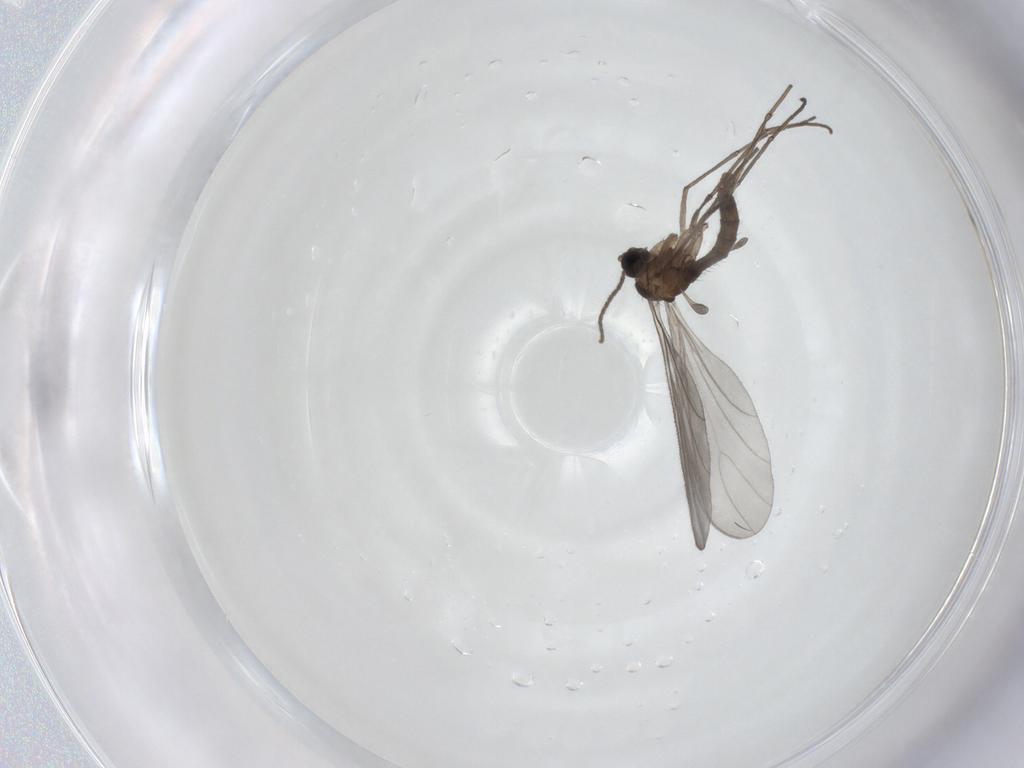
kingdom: Animalia
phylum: Arthropoda
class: Insecta
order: Diptera
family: Sciaridae
